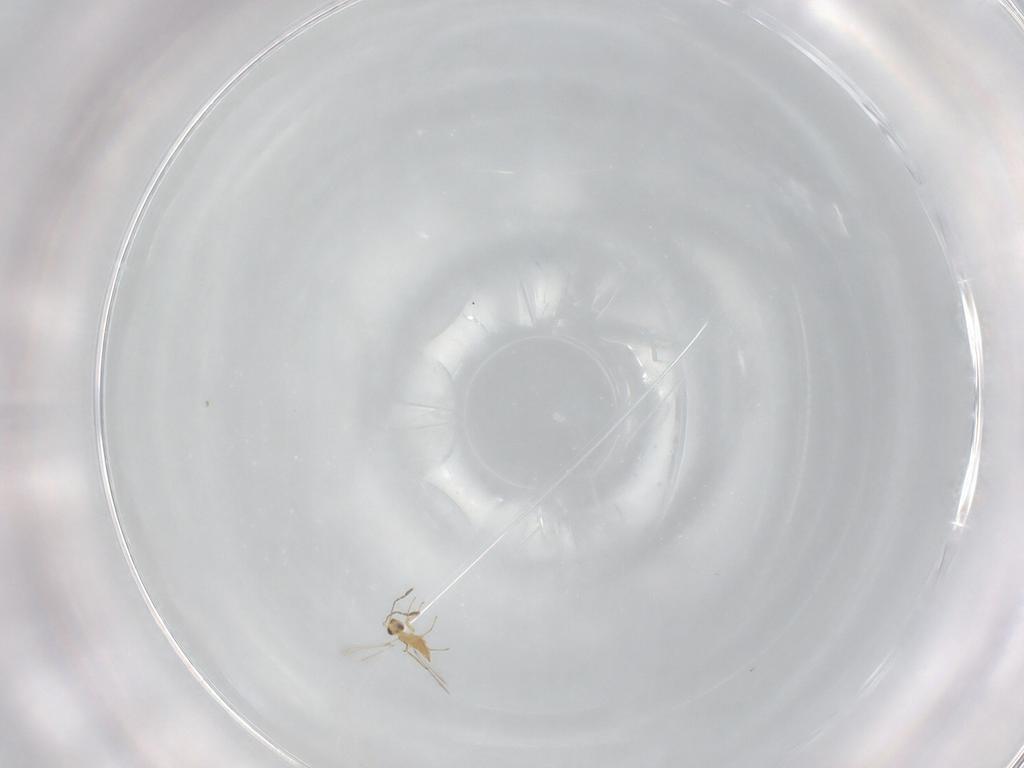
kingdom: Animalia
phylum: Arthropoda
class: Insecta
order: Hymenoptera
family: Mymaridae
